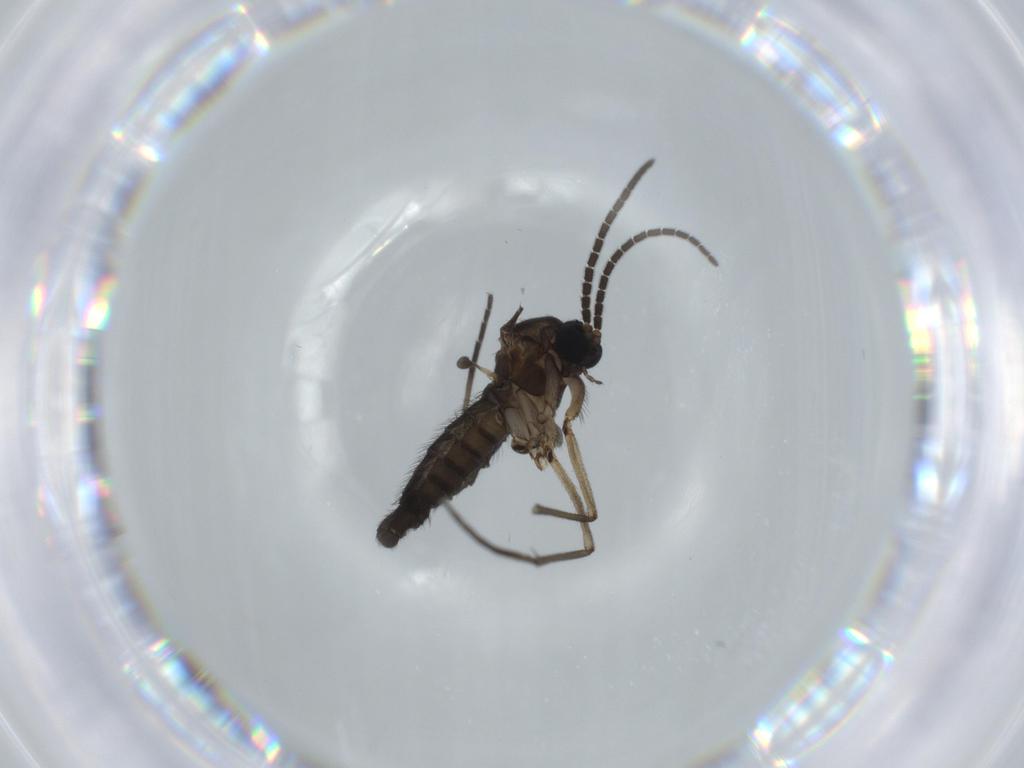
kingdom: Animalia
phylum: Arthropoda
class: Insecta
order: Diptera
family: Sciaridae
